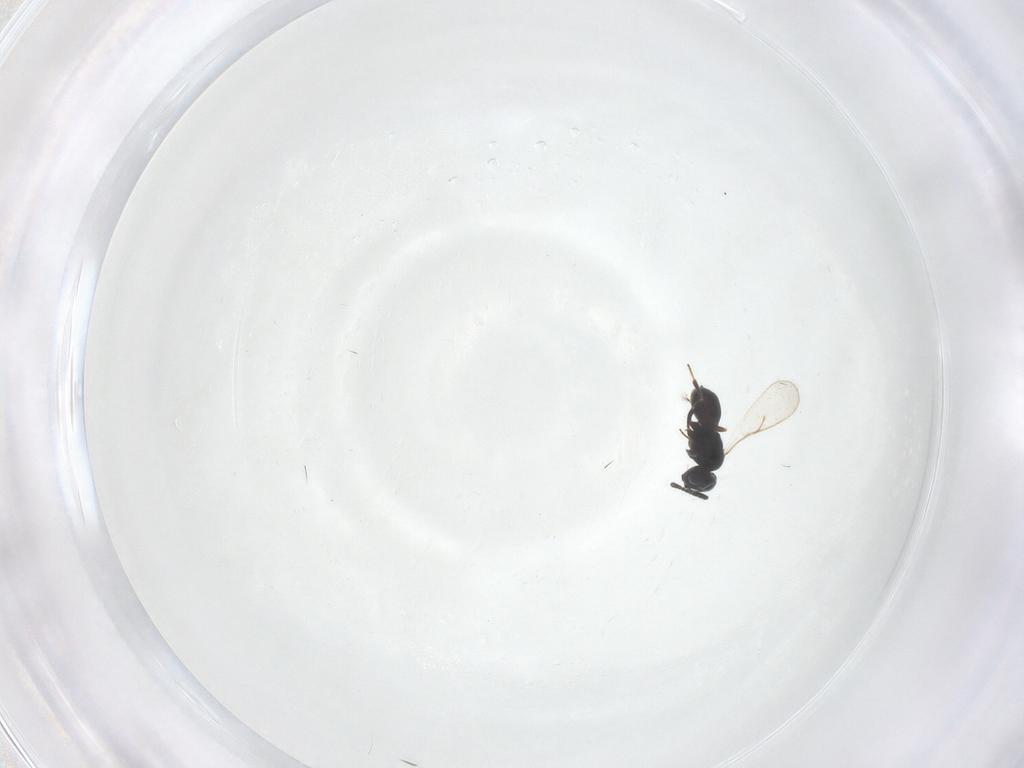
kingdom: Animalia
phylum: Arthropoda
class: Insecta
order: Hymenoptera
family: Scelionidae
